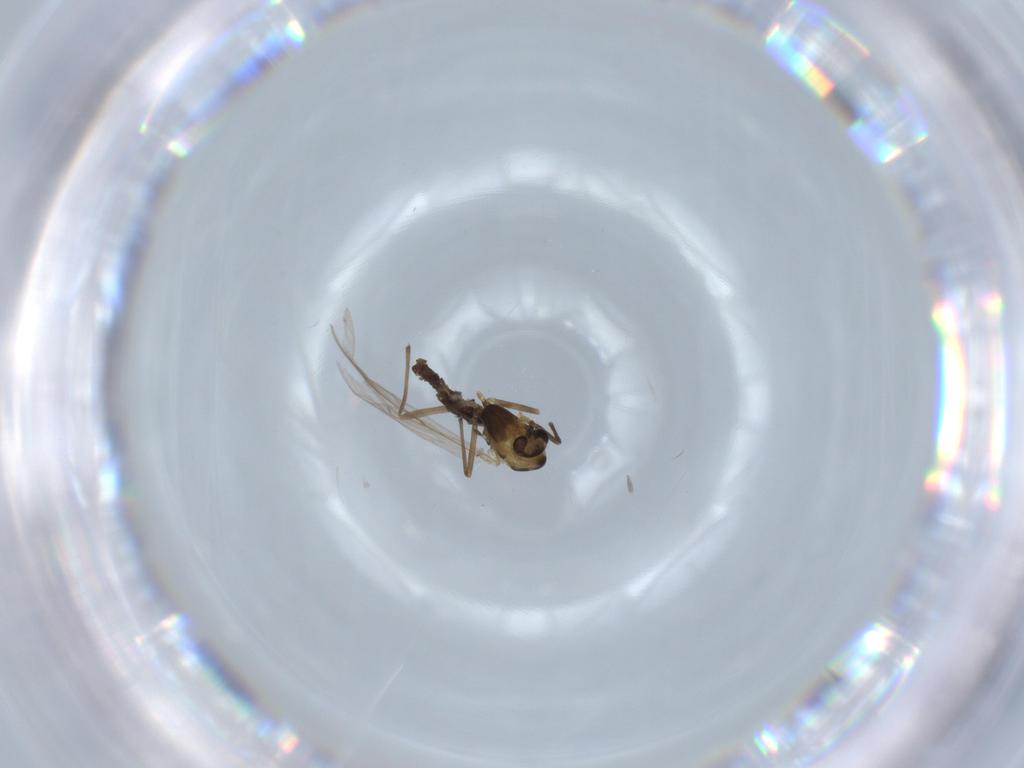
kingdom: Animalia
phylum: Arthropoda
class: Insecta
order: Diptera
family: Chironomidae
